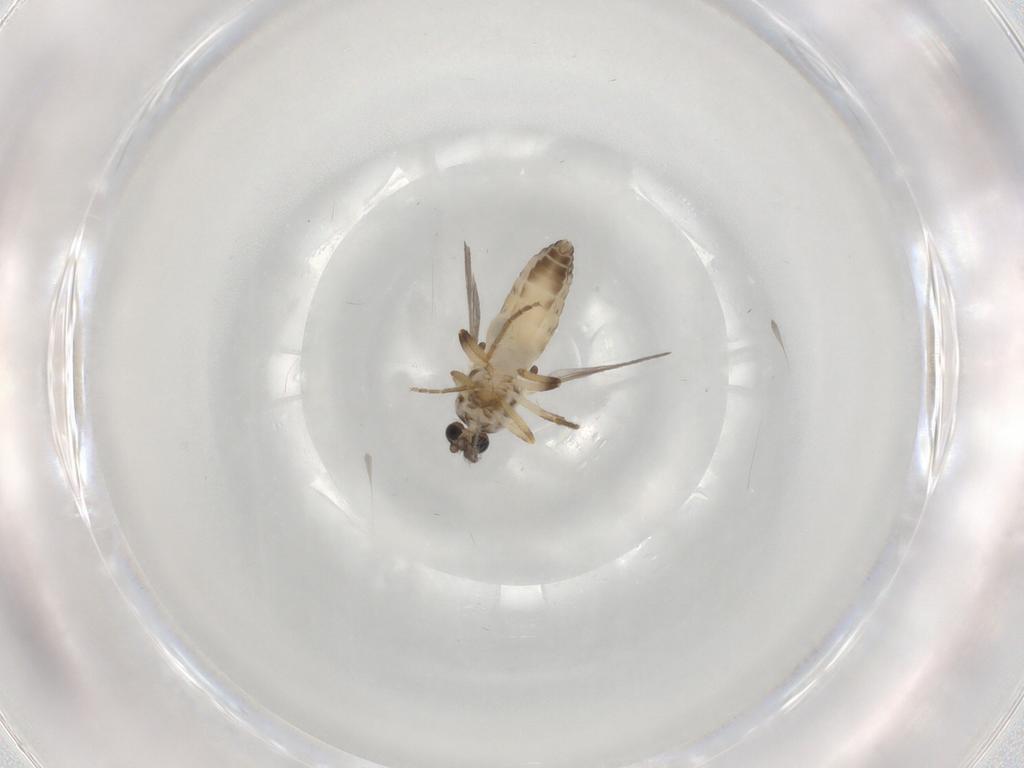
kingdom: Animalia
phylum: Arthropoda
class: Insecta
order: Diptera
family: Ceratopogonidae
